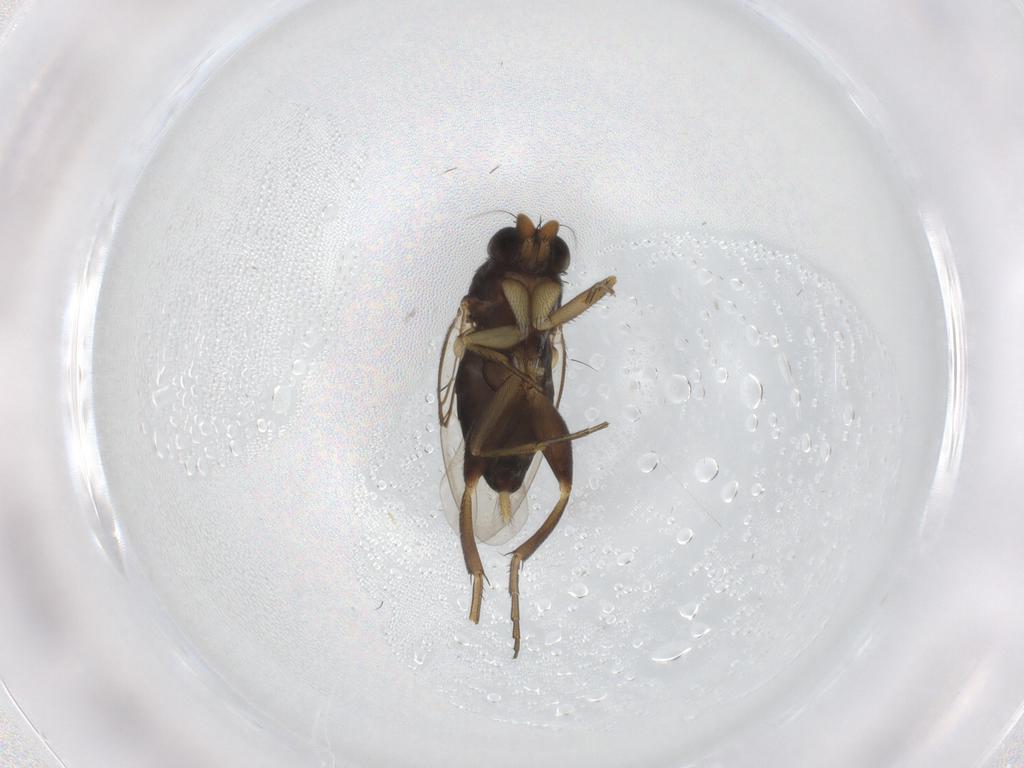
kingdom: Animalia
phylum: Arthropoda
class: Insecta
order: Diptera
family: Phoridae
